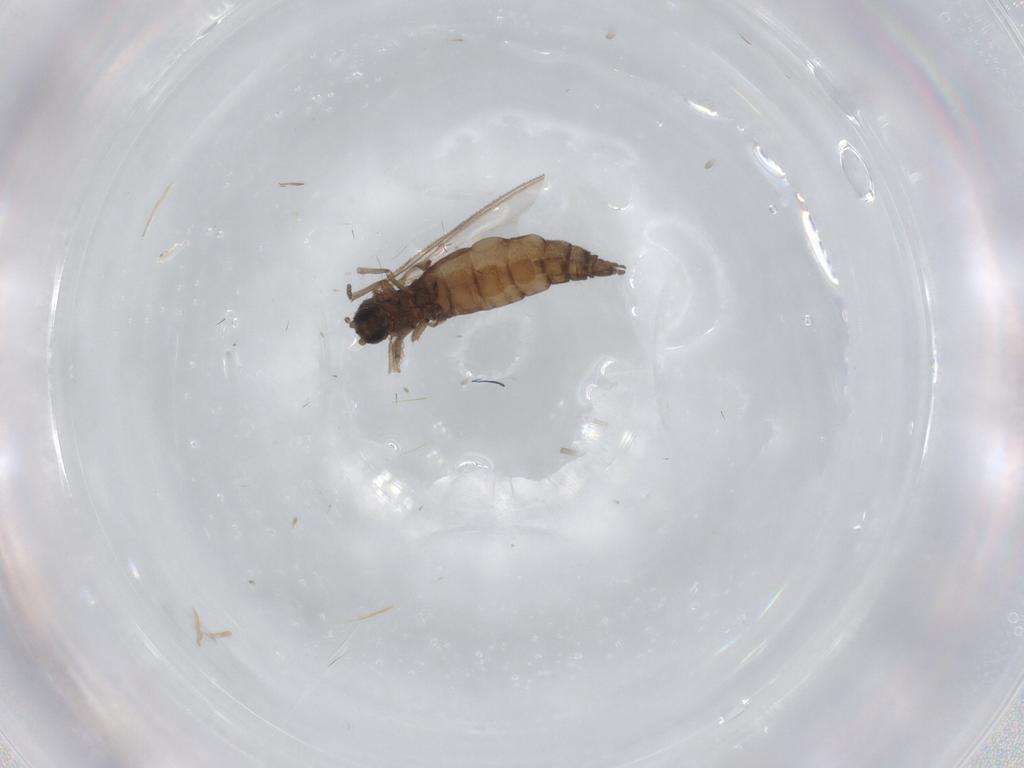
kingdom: Animalia
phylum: Arthropoda
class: Insecta
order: Diptera
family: Sciaridae
